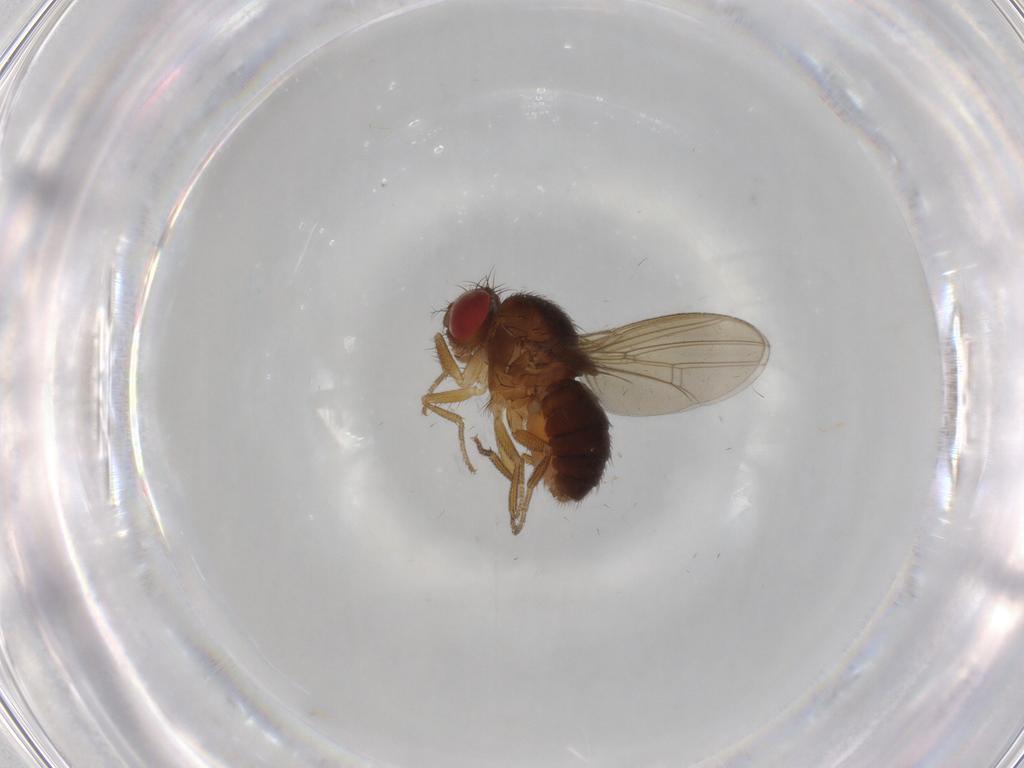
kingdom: Animalia
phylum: Arthropoda
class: Insecta
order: Diptera
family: Drosophilidae
